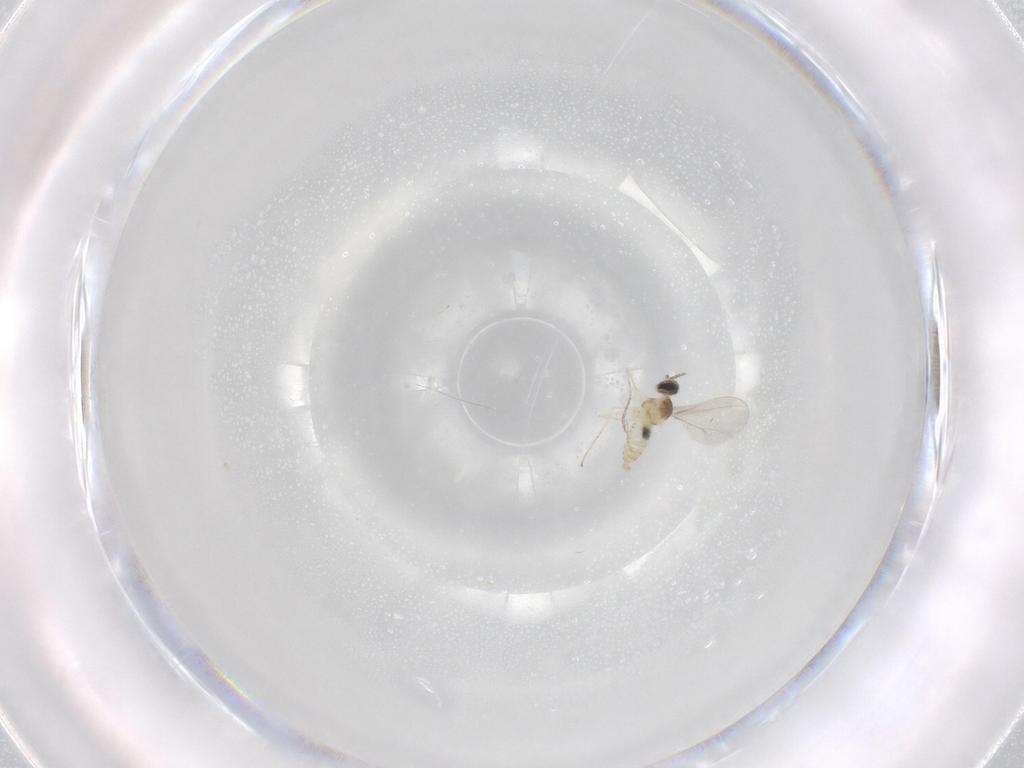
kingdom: Animalia
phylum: Arthropoda
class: Insecta
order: Diptera
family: Cecidomyiidae
